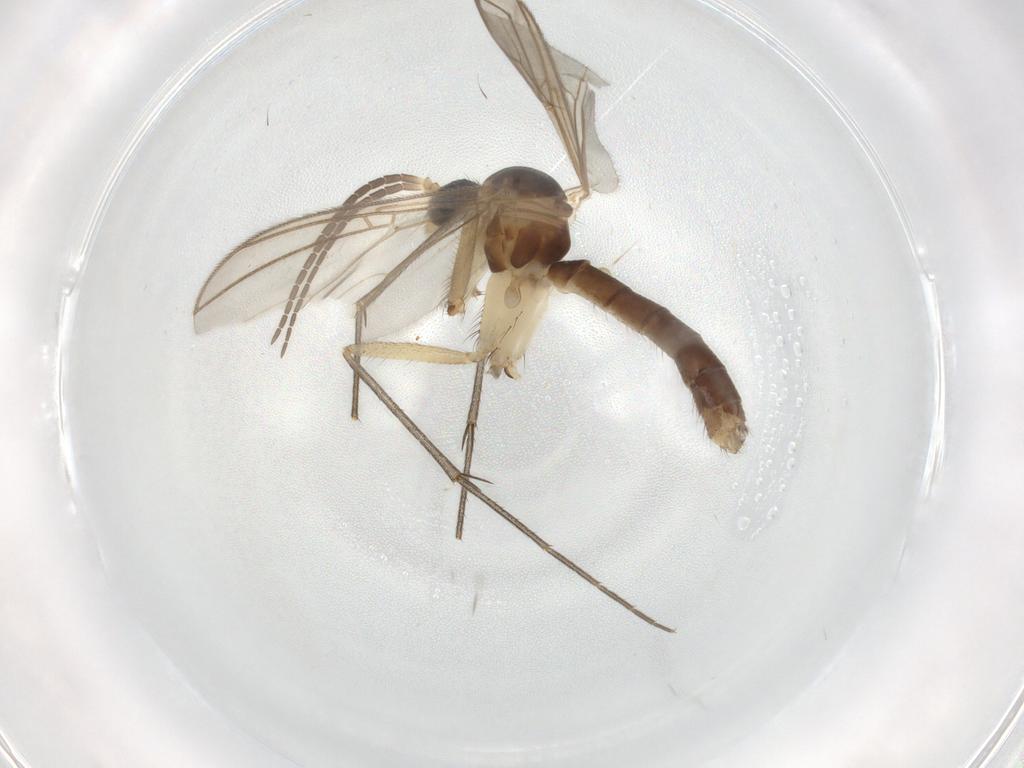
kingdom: Animalia
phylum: Arthropoda
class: Insecta
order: Diptera
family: Mycetophilidae
